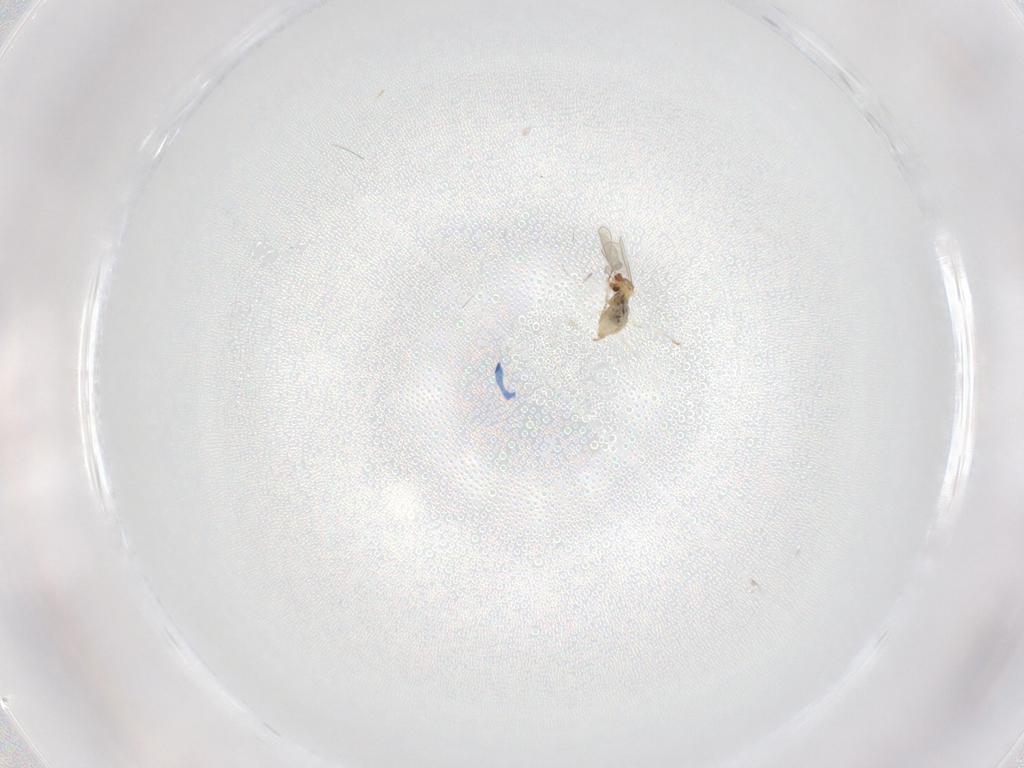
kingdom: Animalia
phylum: Arthropoda
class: Insecta
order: Diptera
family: Cecidomyiidae
